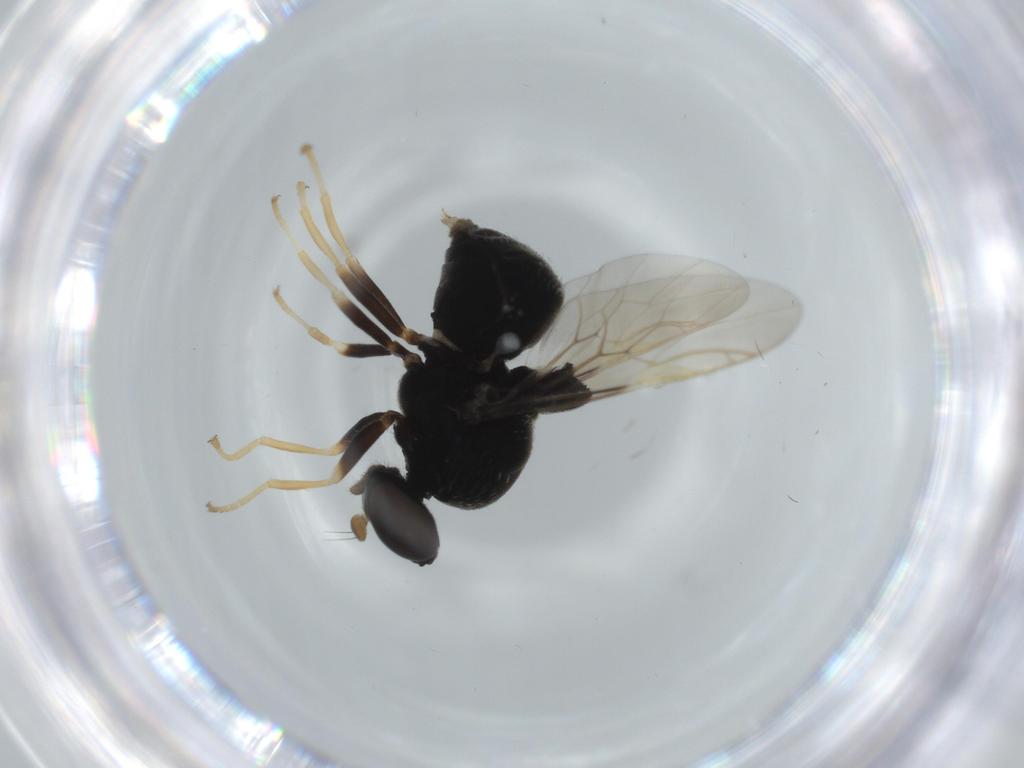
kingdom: Animalia
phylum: Arthropoda
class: Insecta
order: Diptera
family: Stratiomyidae
